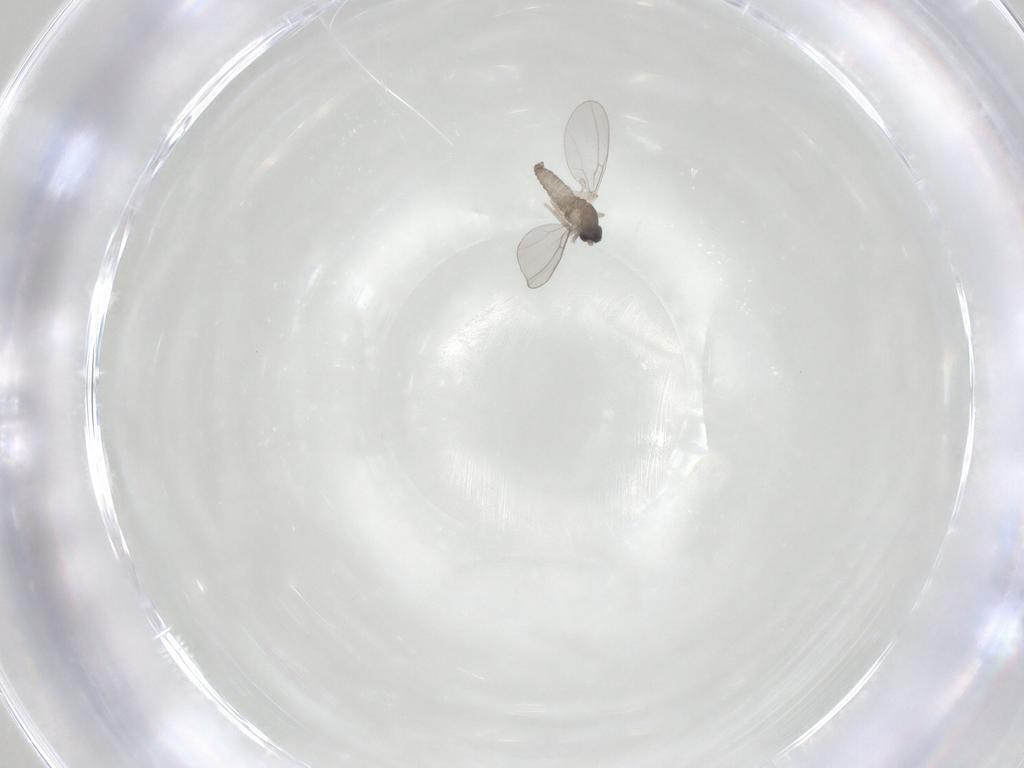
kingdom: Animalia
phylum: Arthropoda
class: Insecta
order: Diptera
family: Cecidomyiidae
